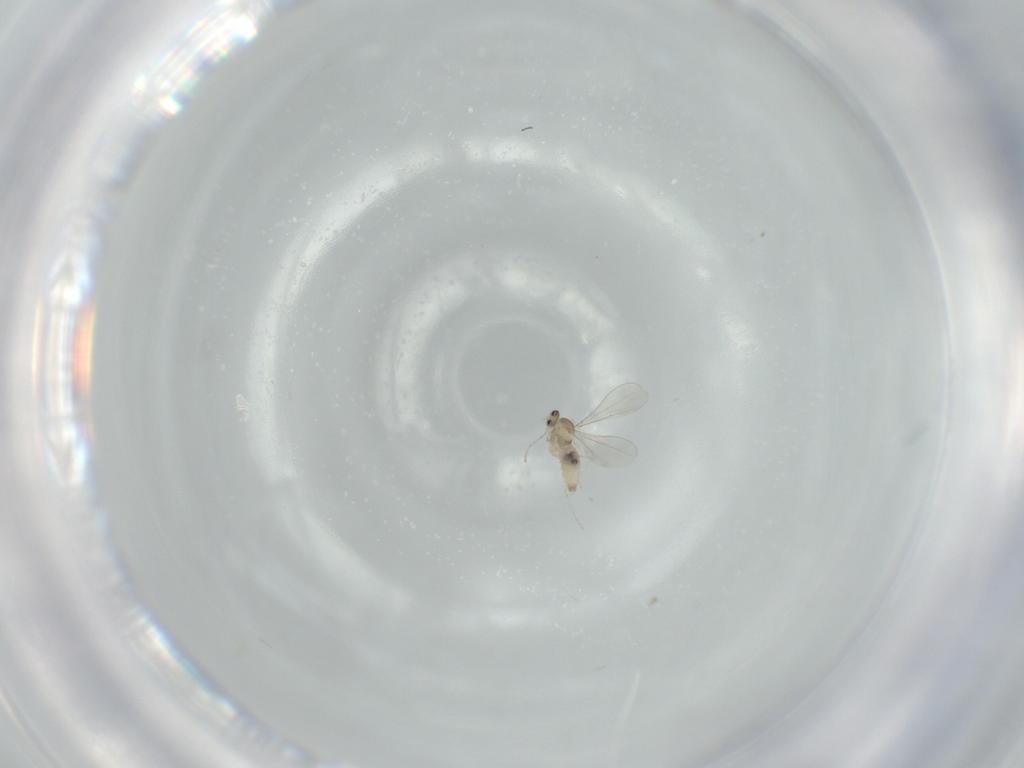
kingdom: Animalia
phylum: Arthropoda
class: Insecta
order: Diptera
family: Cecidomyiidae
